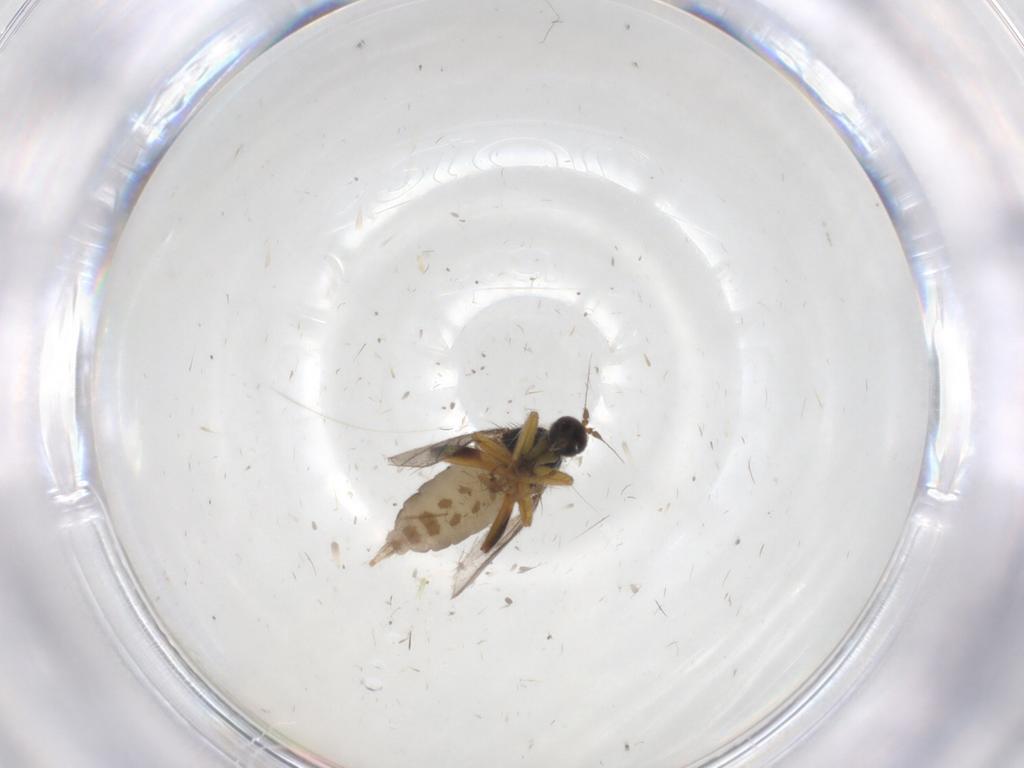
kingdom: Animalia
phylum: Arthropoda
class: Insecta
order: Diptera
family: Hybotidae
